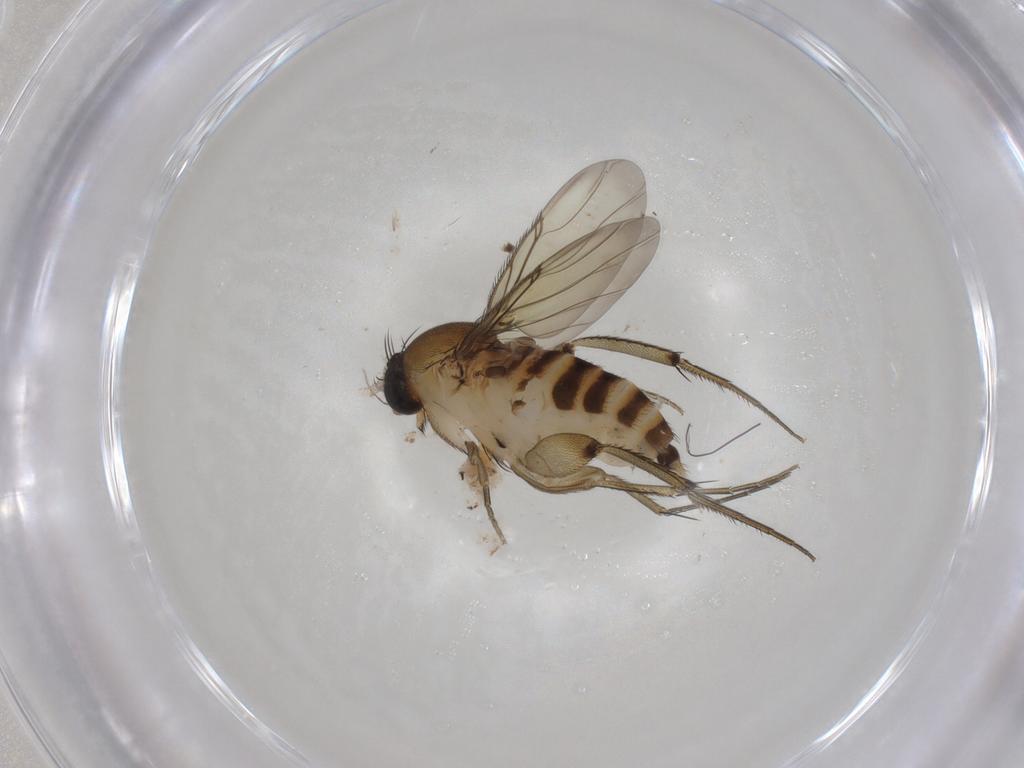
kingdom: Animalia
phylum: Arthropoda
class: Insecta
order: Diptera
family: Phoridae
